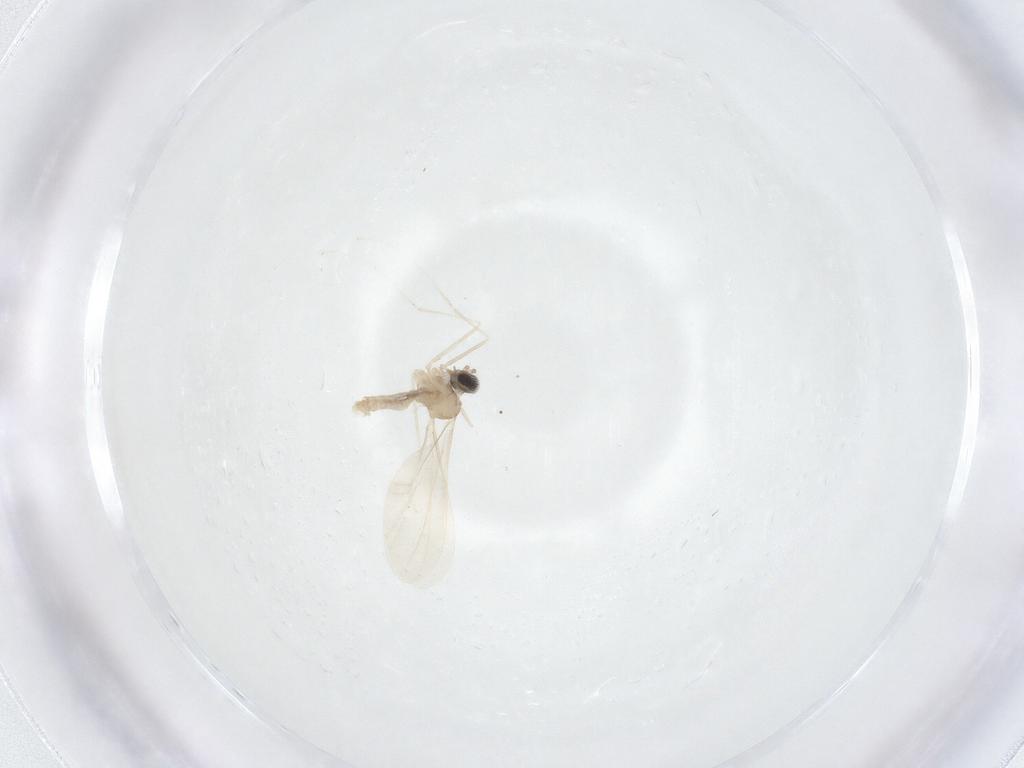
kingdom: Animalia
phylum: Arthropoda
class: Insecta
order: Diptera
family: Cecidomyiidae
